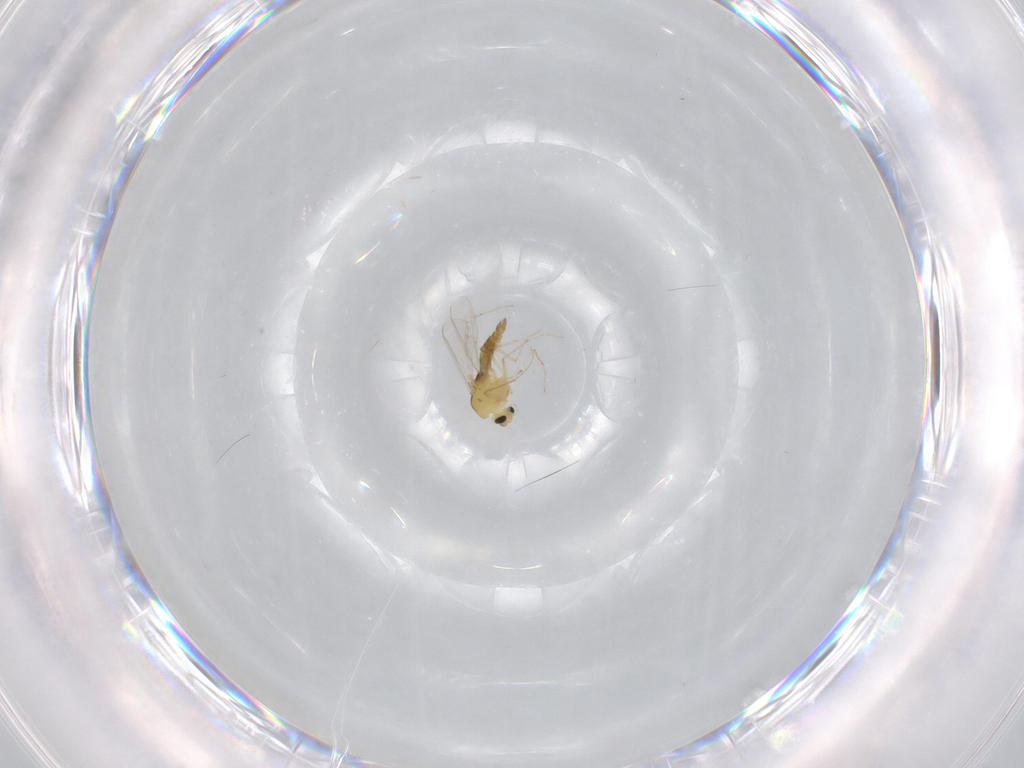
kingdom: Animalia
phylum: Arthropoda
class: Insecta
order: Diptera
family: Chironomidae
